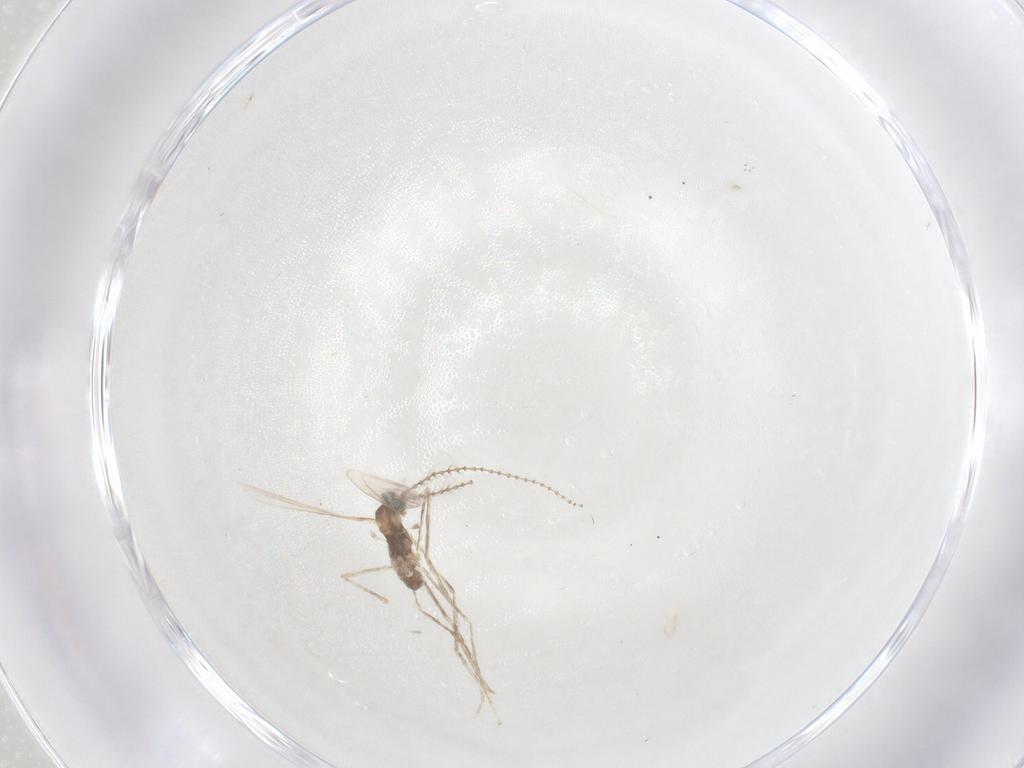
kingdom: Animalia
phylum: Arthropoda
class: Insecta
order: Diptera
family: Cecidomyiidae
